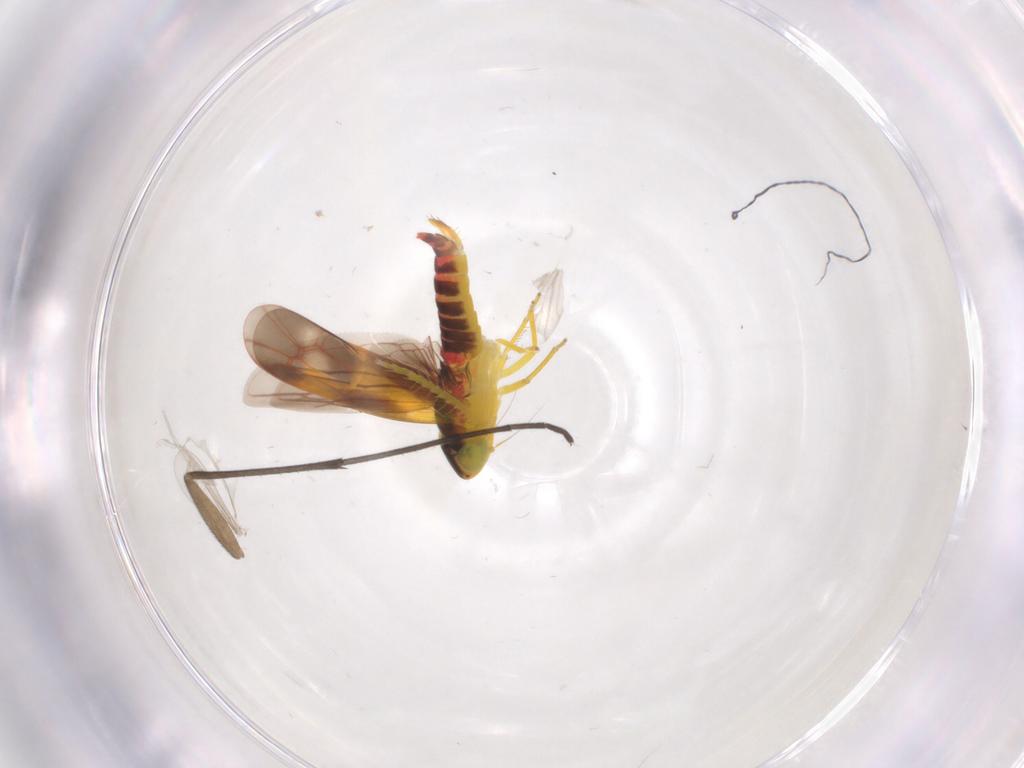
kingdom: Animalia
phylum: Arthropoda
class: Insecta
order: Hemiptera
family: Cicadellidae
